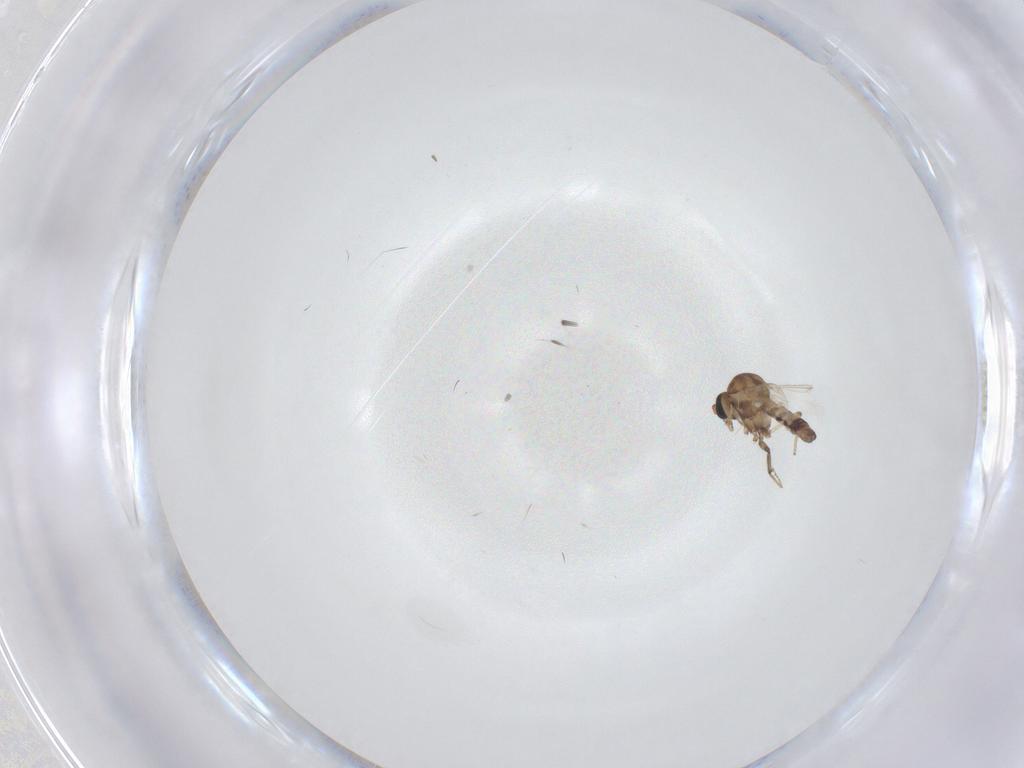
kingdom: Animalia
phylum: Arthropoda
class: Insecta
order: Diptera
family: Ceratopogonidae
